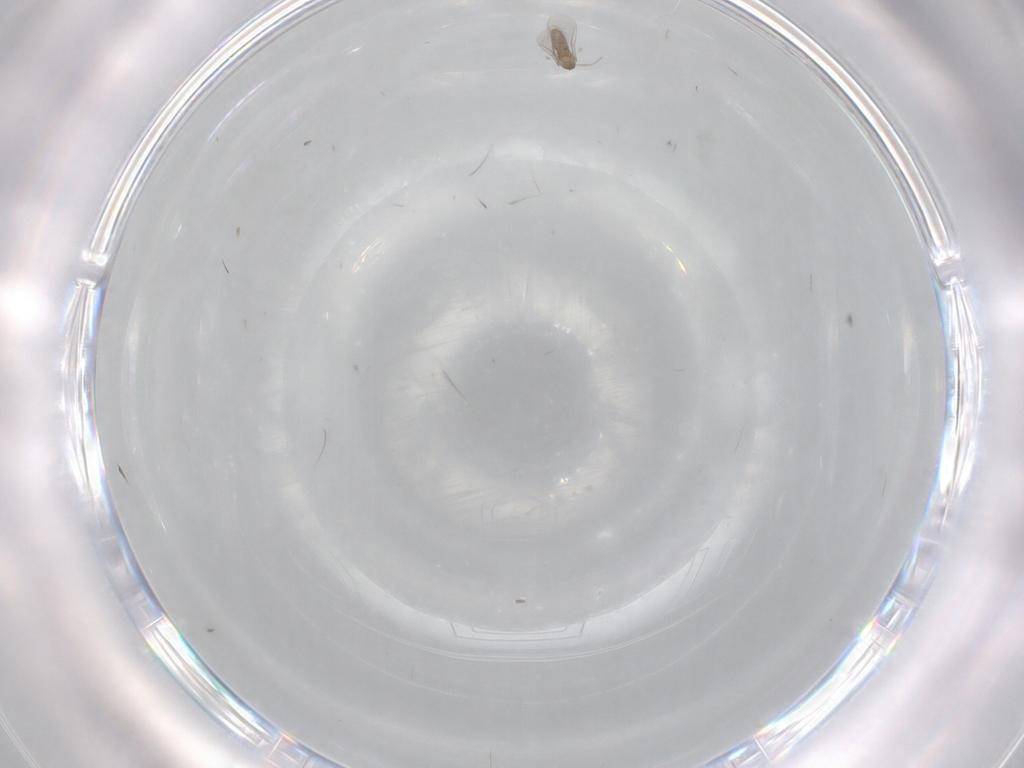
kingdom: Animalia
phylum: Arthropoda
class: Insecta
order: Diptera
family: Cecidomyiidae
